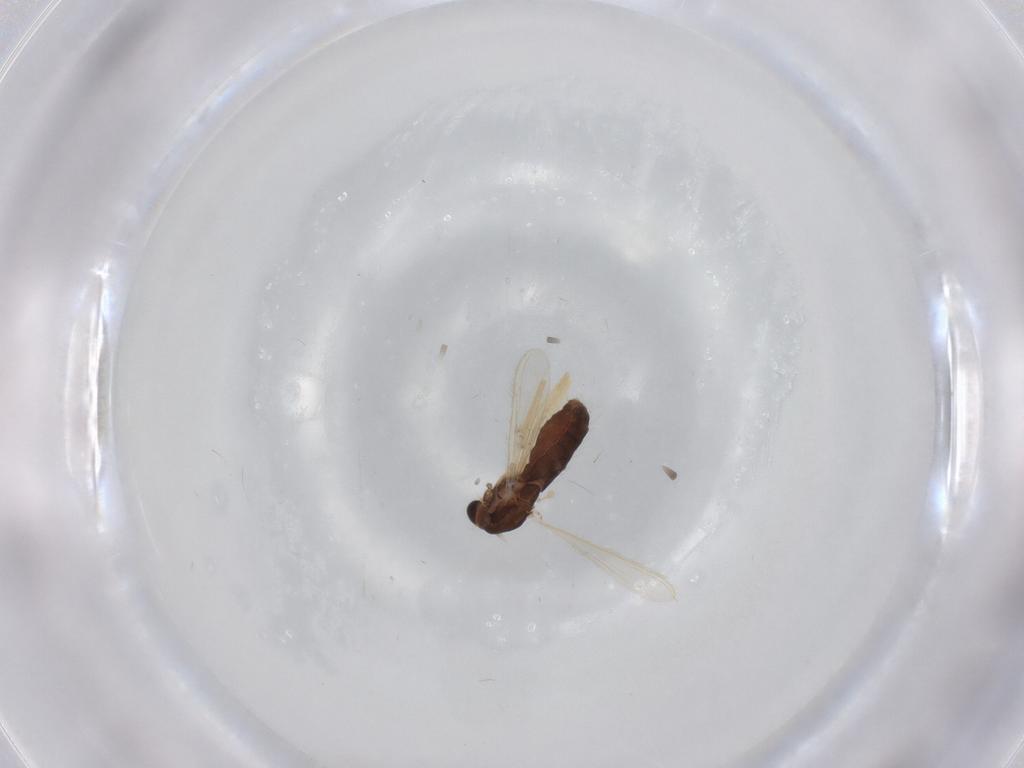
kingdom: Animalia
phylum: Arthropoda
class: Insecta
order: Diptera
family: Chironomidae
